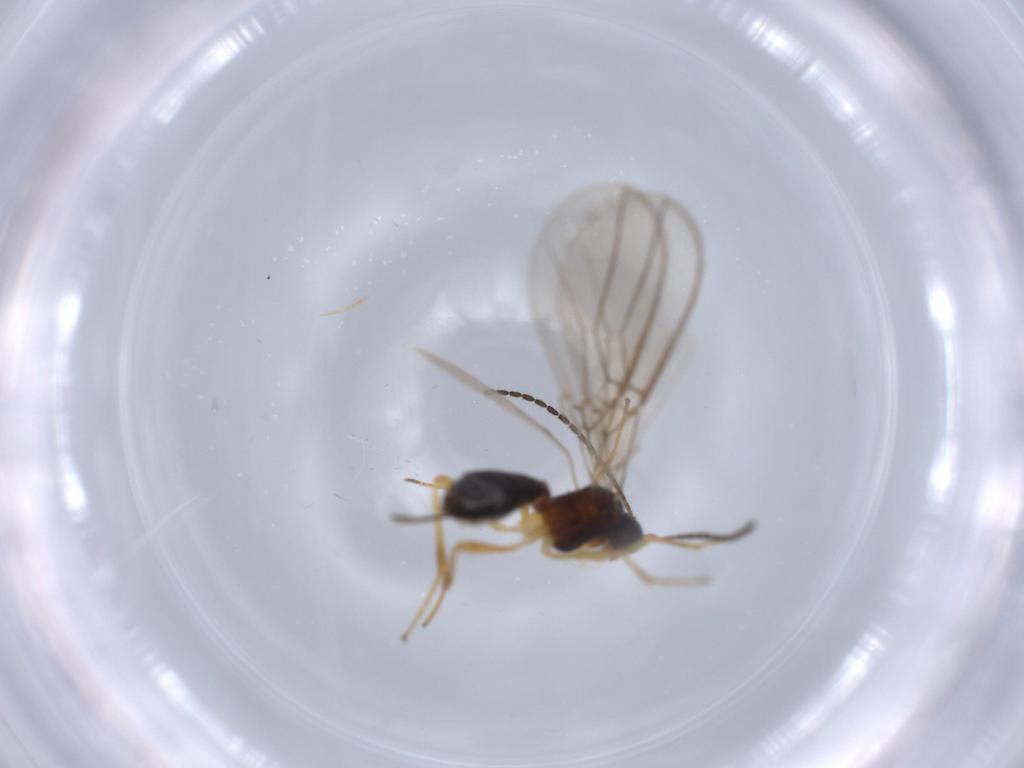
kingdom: Animalia
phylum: Arthropoda
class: Insecta
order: Hymenoptera
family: Braconidae
